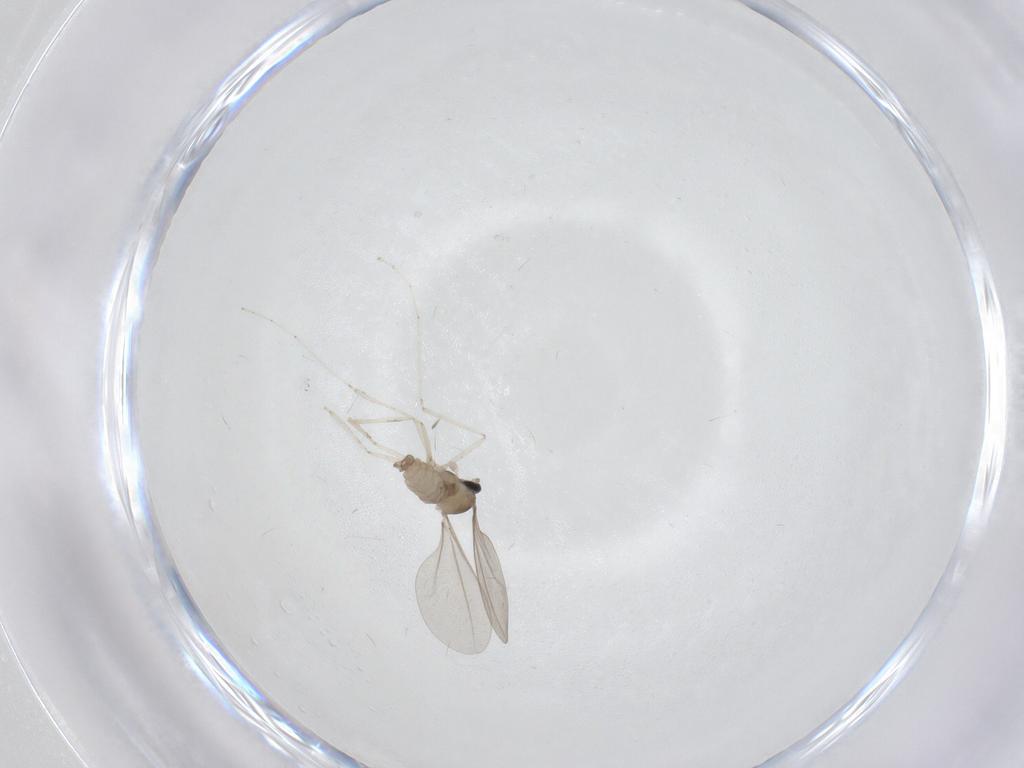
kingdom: Animalia
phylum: Arthropoda
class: Insecta
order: Diptera
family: Cecidomyiidae
